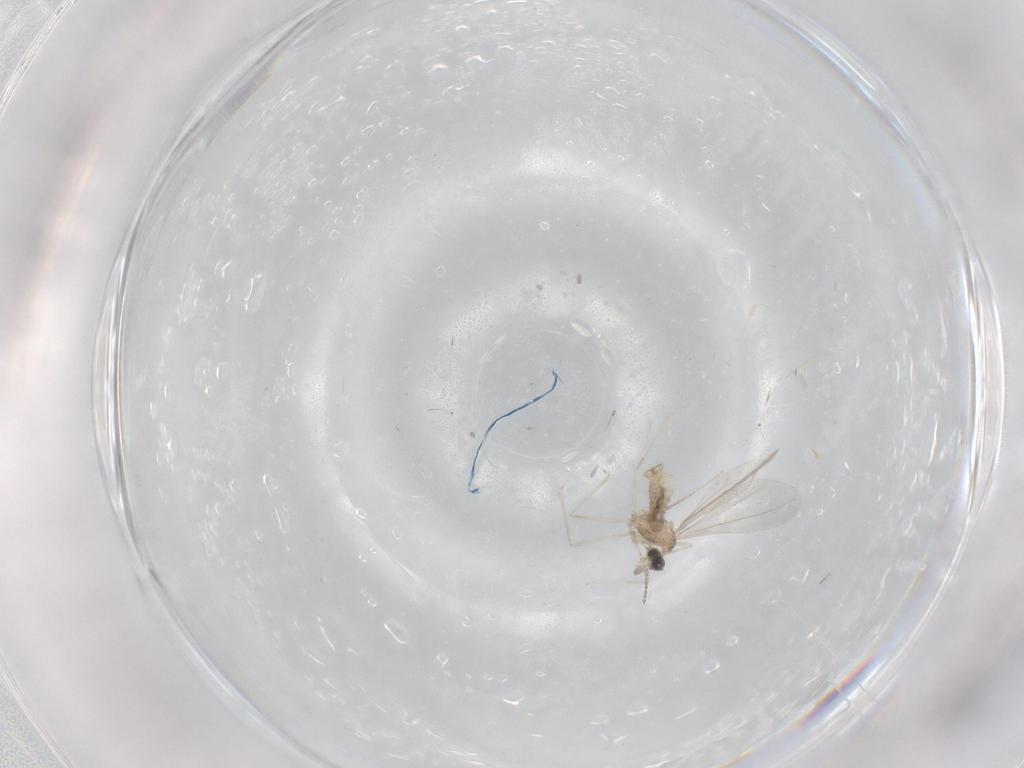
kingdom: Animalia
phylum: Arthropoda
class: Insecta
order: Diptera
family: Cecidomyiidae
